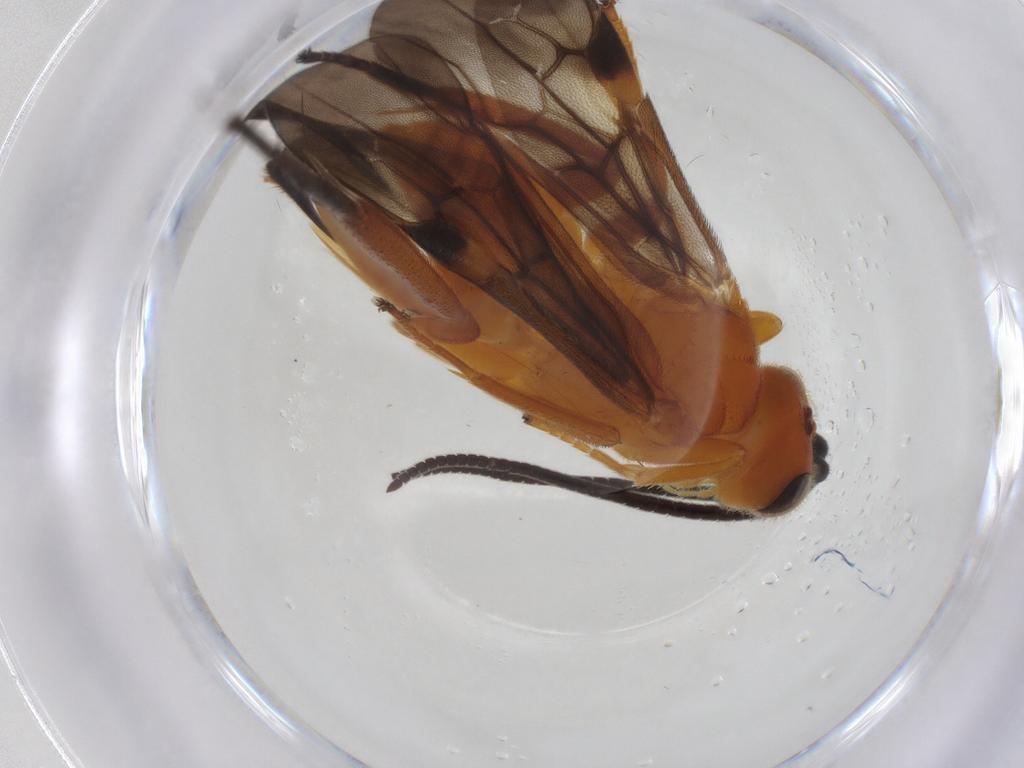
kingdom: Animalia
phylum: Arthropoda
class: Insecta
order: Hymenoptera
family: Braconidae
